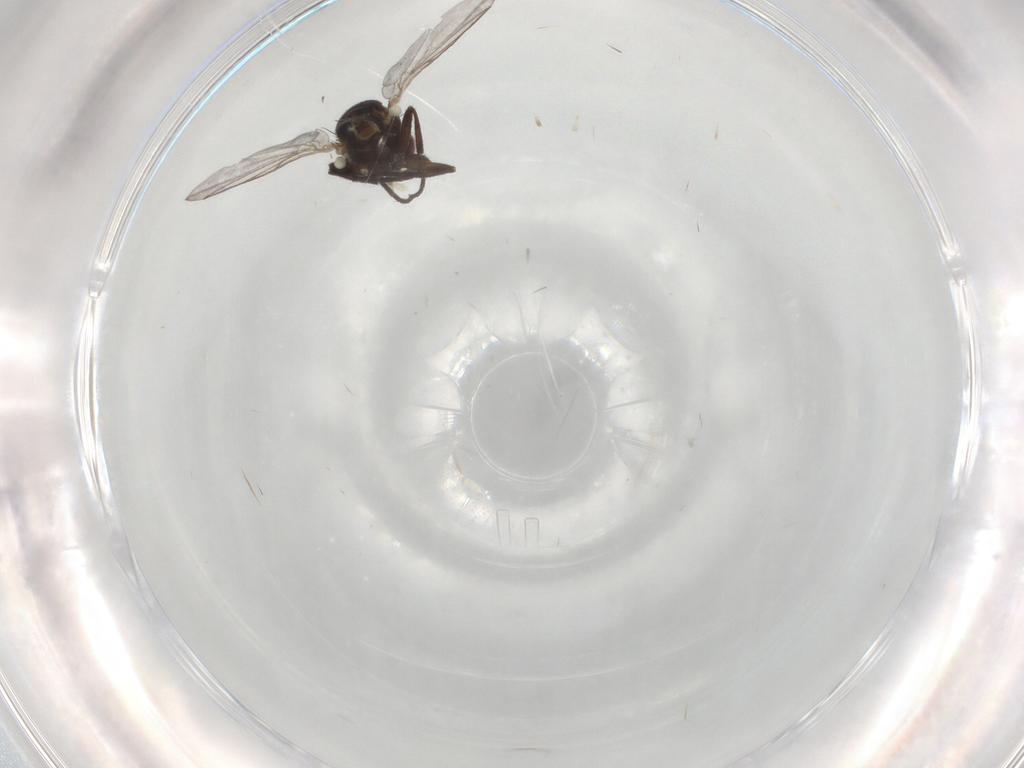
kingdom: Animalia
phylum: Arthropoda
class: Insecta
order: Diptera
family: Agromyzidae
